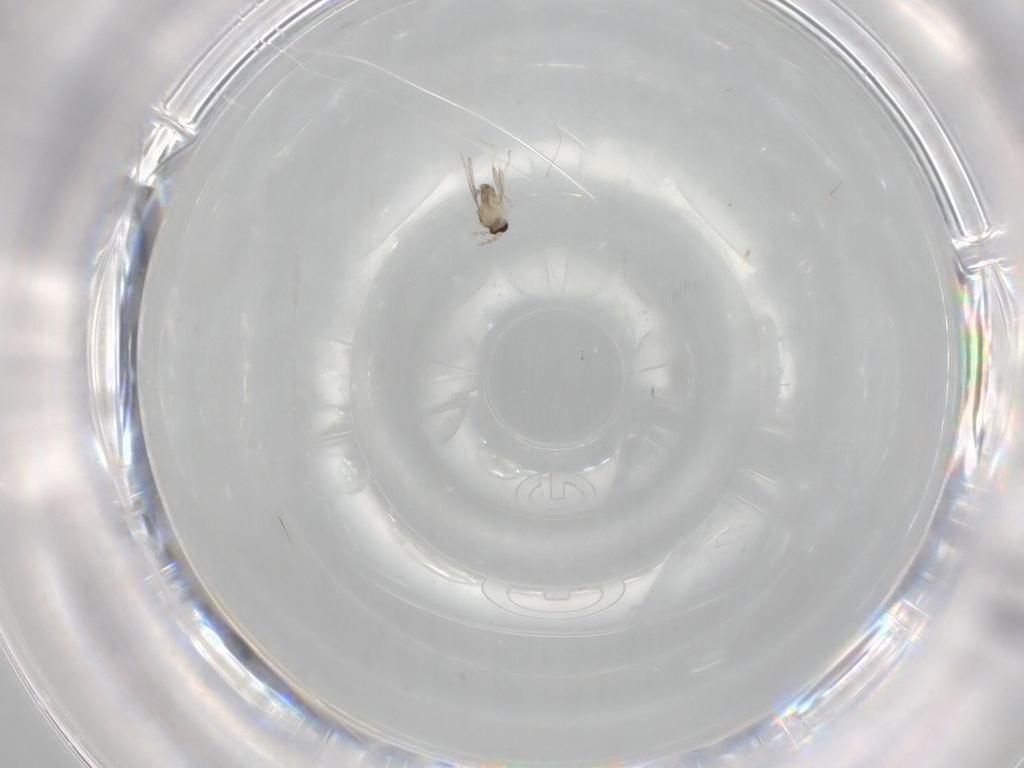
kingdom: Animalia
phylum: Arthropoda
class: Insecta
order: Diptera
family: Cecidomyiidae
